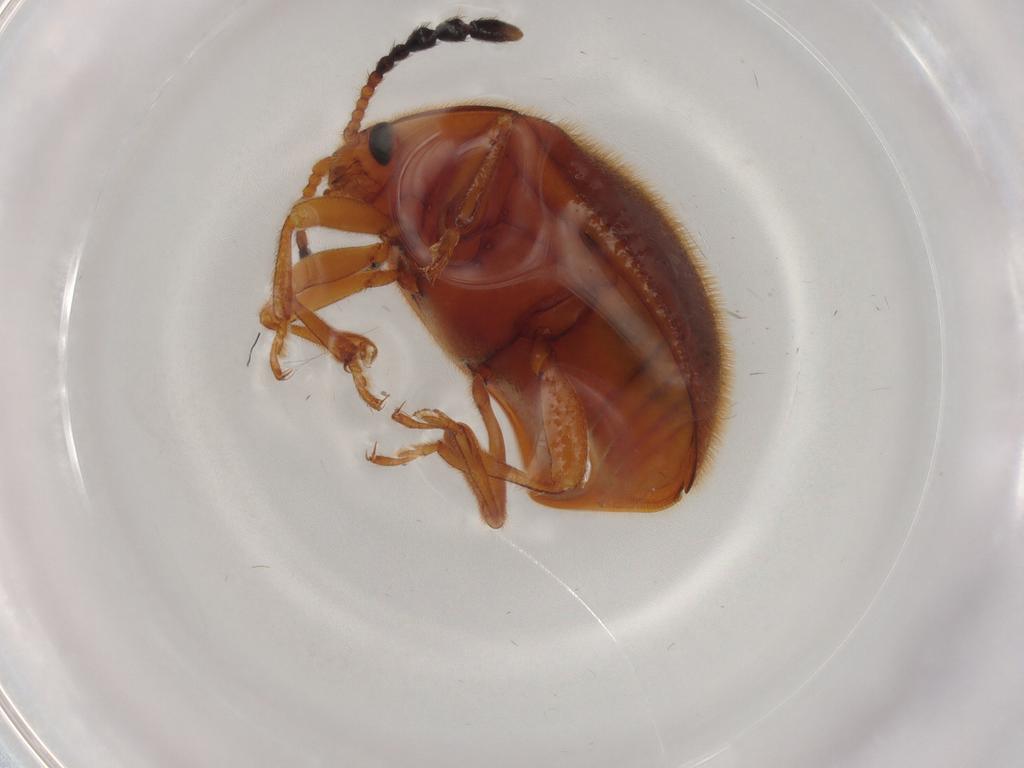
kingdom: Animalia
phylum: Arthropoda
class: Insecta
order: Coleoptera
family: Endomychidae
